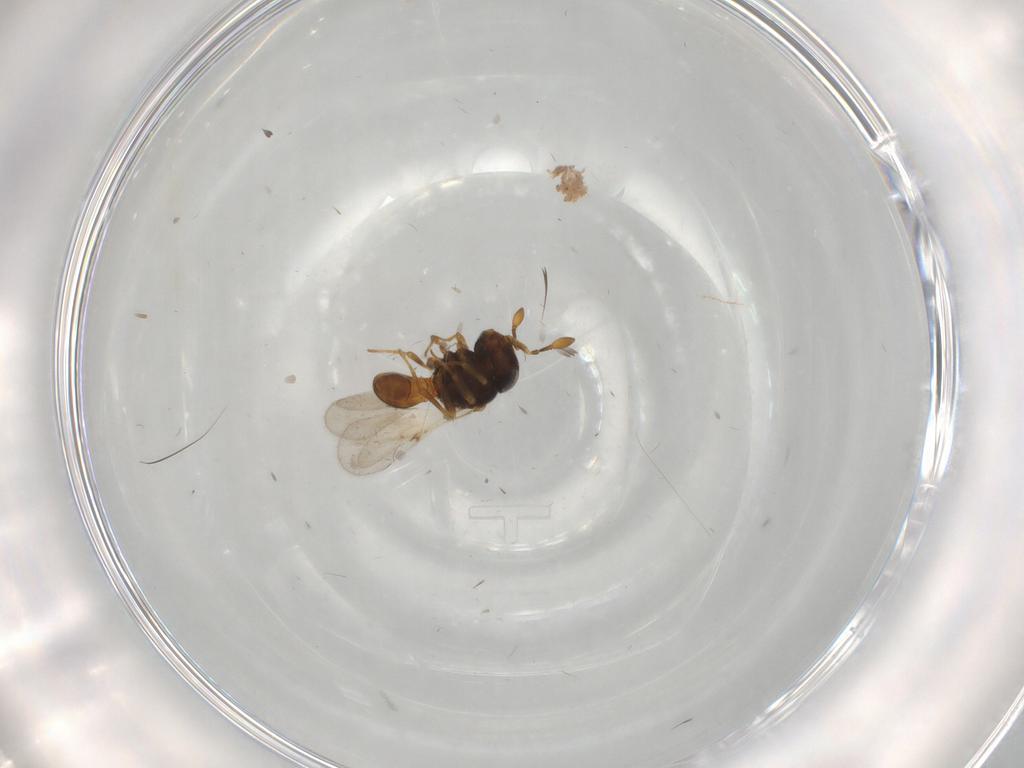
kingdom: Animalia
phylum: Arthropoda
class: Insecta
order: Hymenoptera
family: Scelionidae
